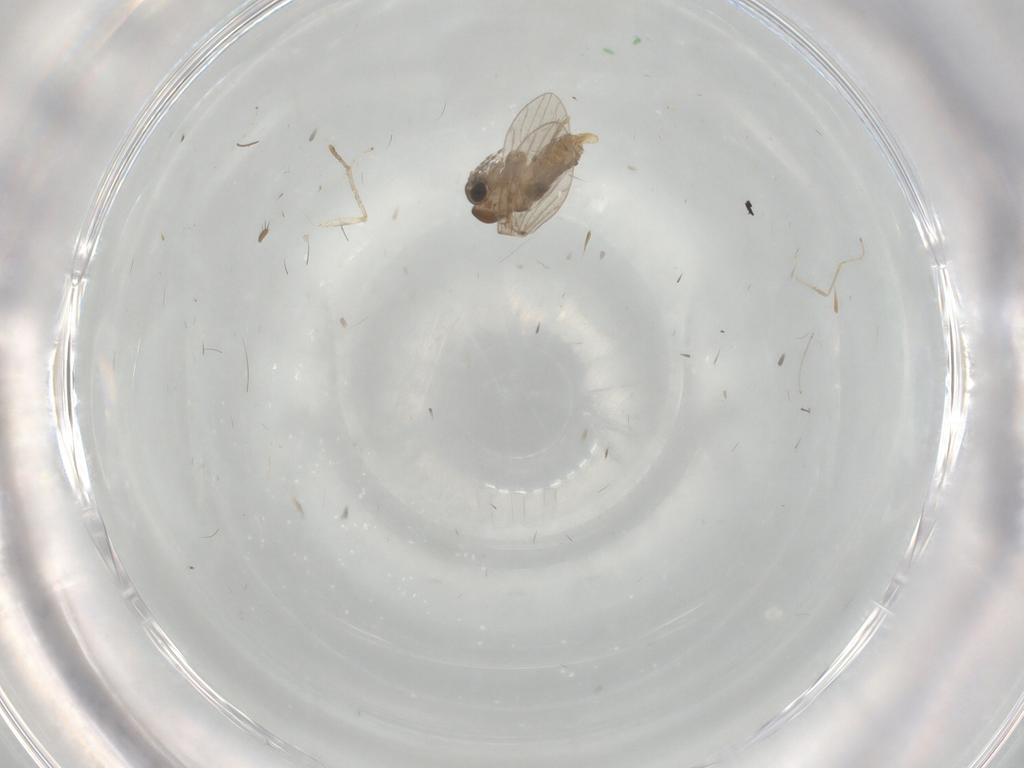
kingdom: Animalia
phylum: Arthropoda
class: Insecta
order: Diptera
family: Cecidomyiidae
